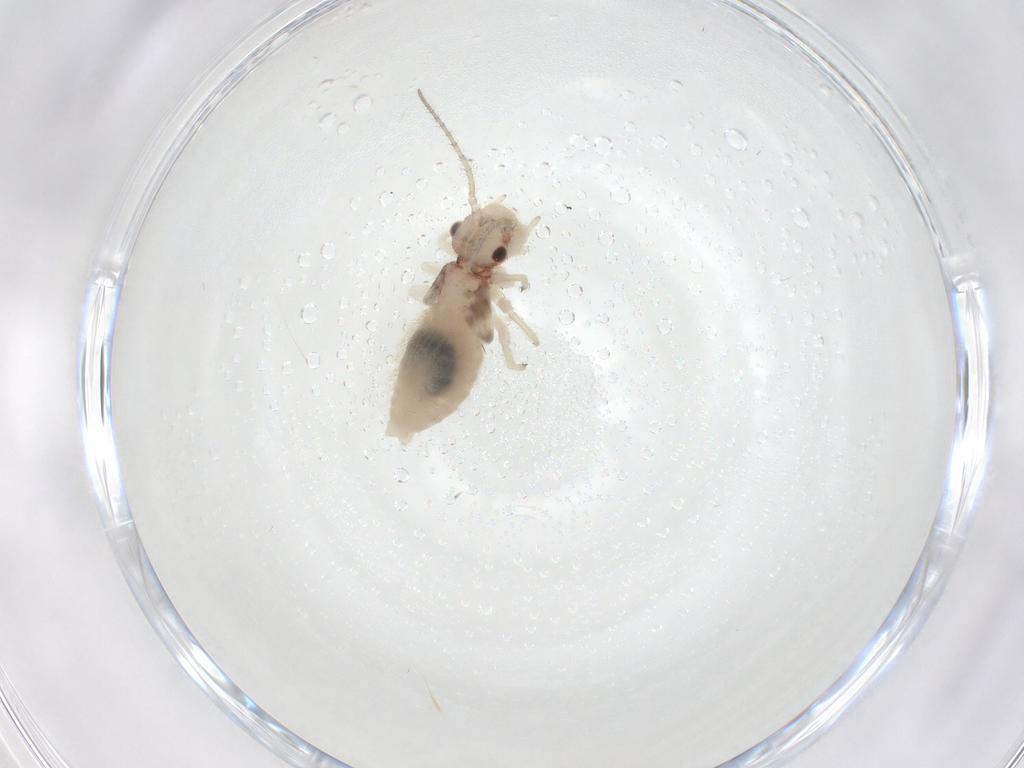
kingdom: Animalia
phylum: Arthropoda
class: Insecta
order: Psocodea
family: Amphipsocidae
